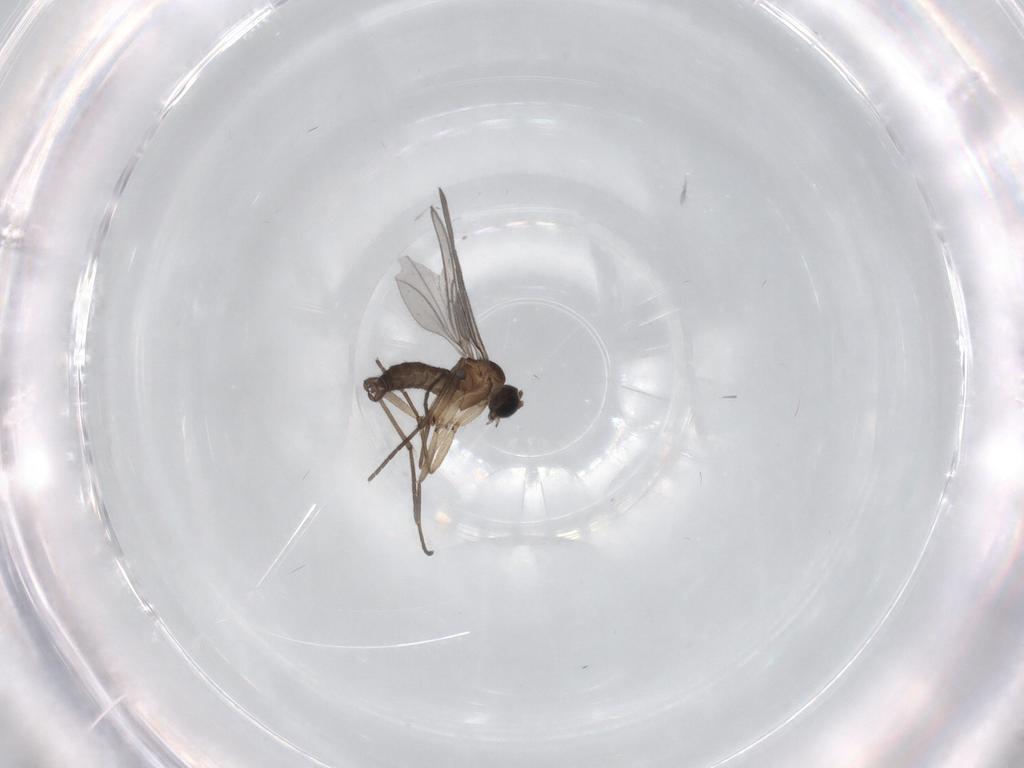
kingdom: Animalia
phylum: Arthropoda
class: Insecta
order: Diptera
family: Sciaridae
